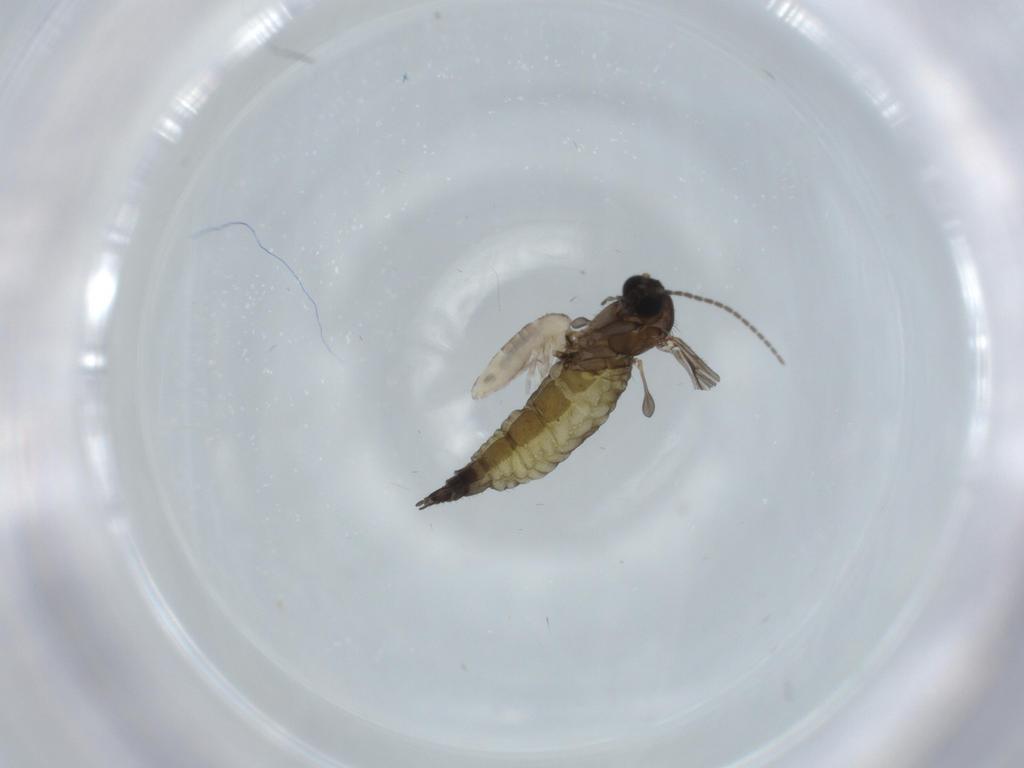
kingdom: Animalia
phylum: Arthropoda
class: Insecta
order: Diptera
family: Sciaridae
